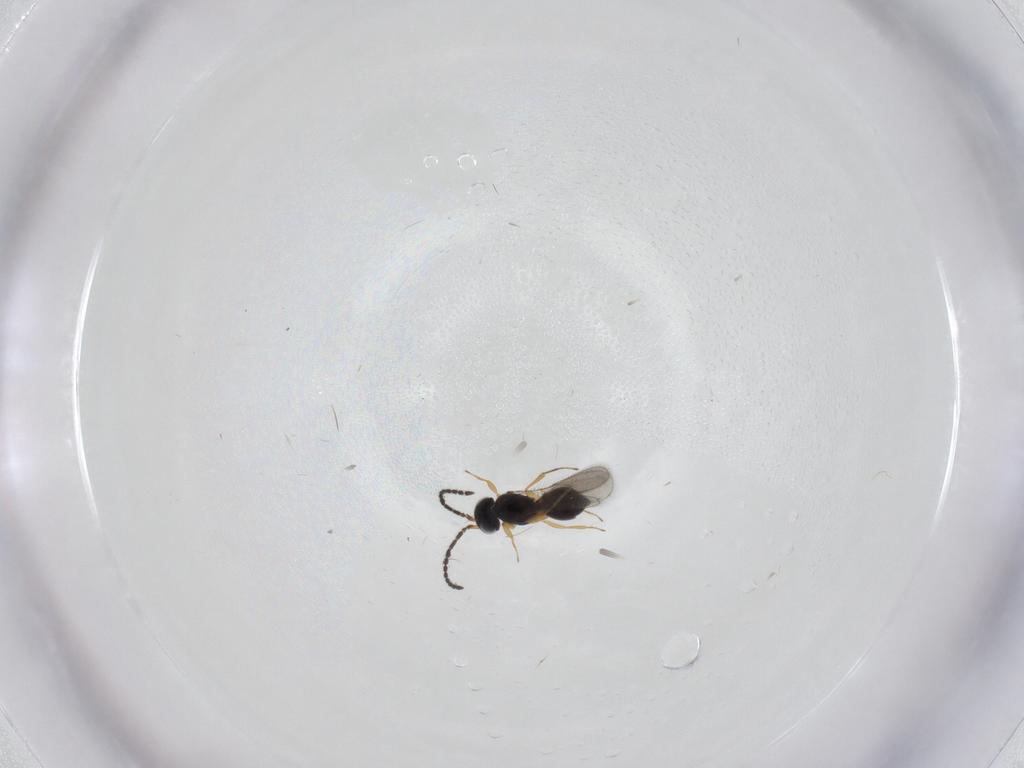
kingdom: Animalia
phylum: Arthropoda
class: Insecta
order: Hymenoptera
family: Scelionidae
